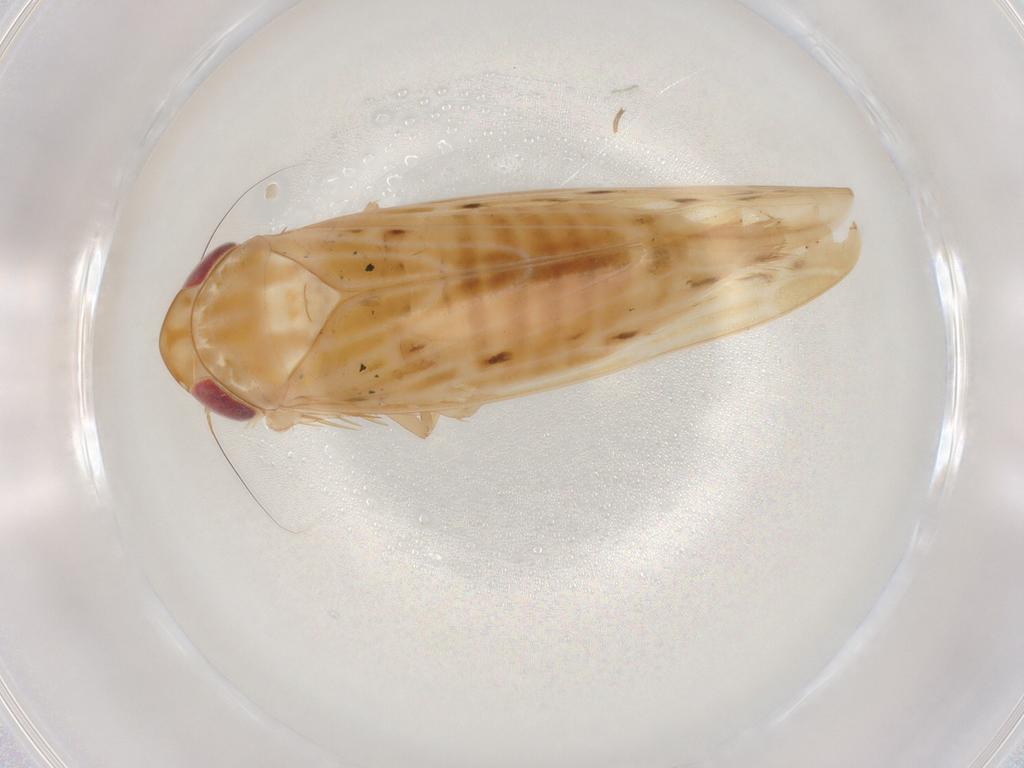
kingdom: Animalia
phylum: Arthropoda
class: Insecta
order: Hemiptera
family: Cicadellidae
